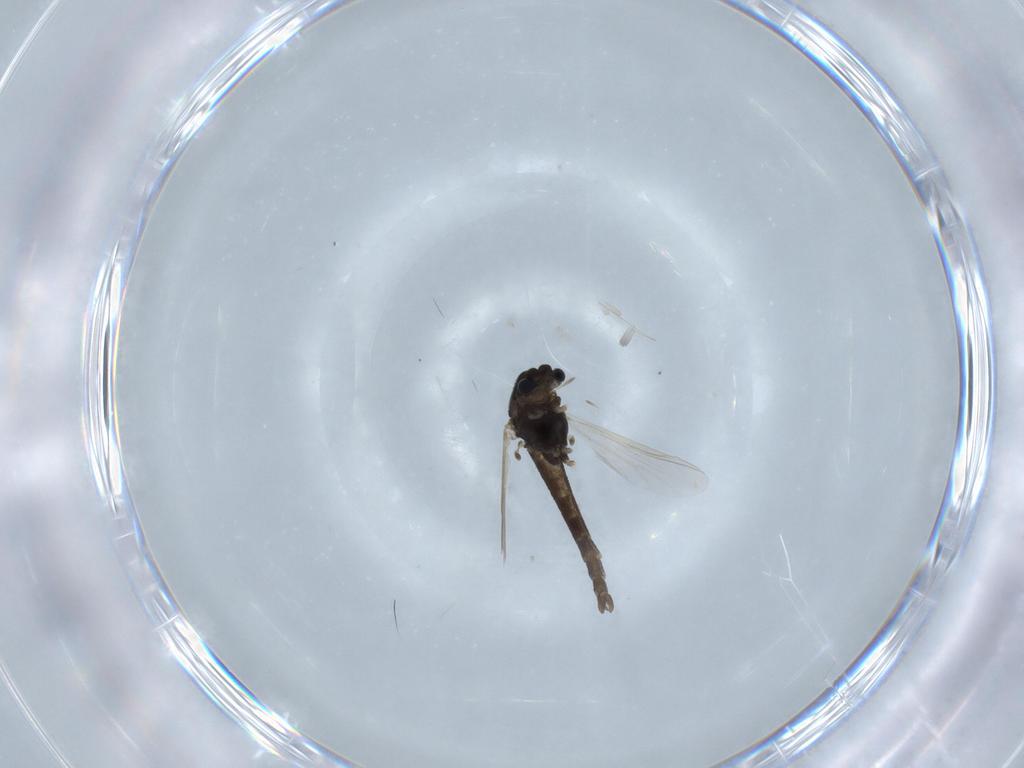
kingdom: Animalia
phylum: Arthropoda
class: Insecta
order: Diptera
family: Chironomidae
